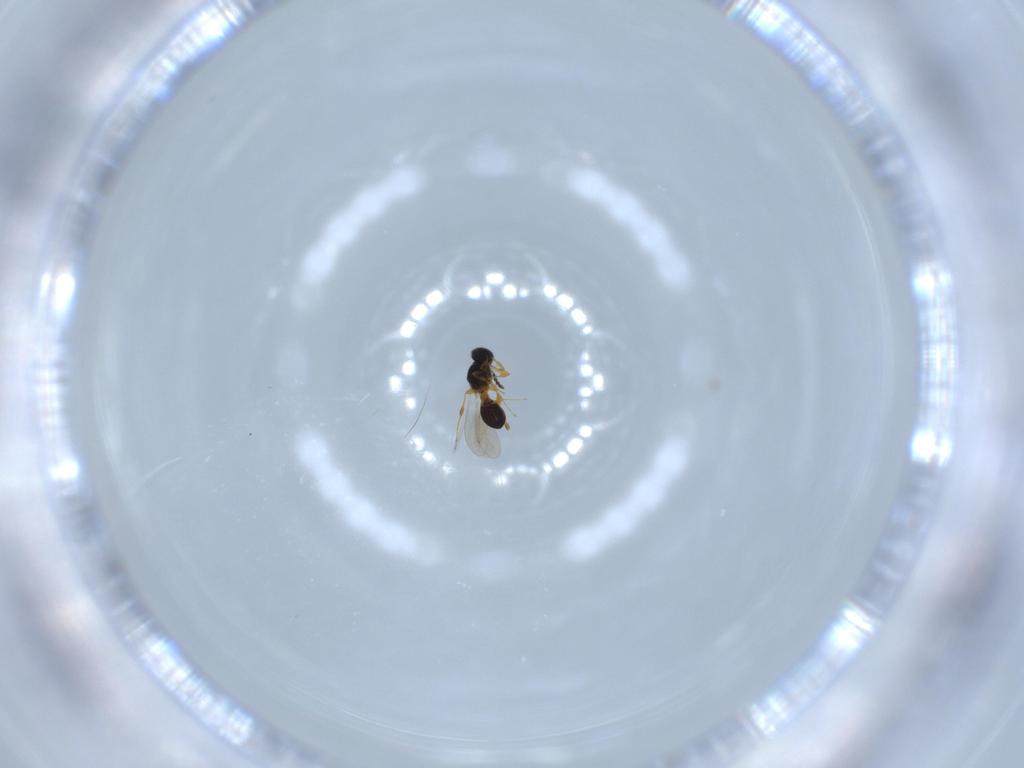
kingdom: Animalia
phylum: Arthropoda
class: Insecta
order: Hymenoptera
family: Platygastridae
